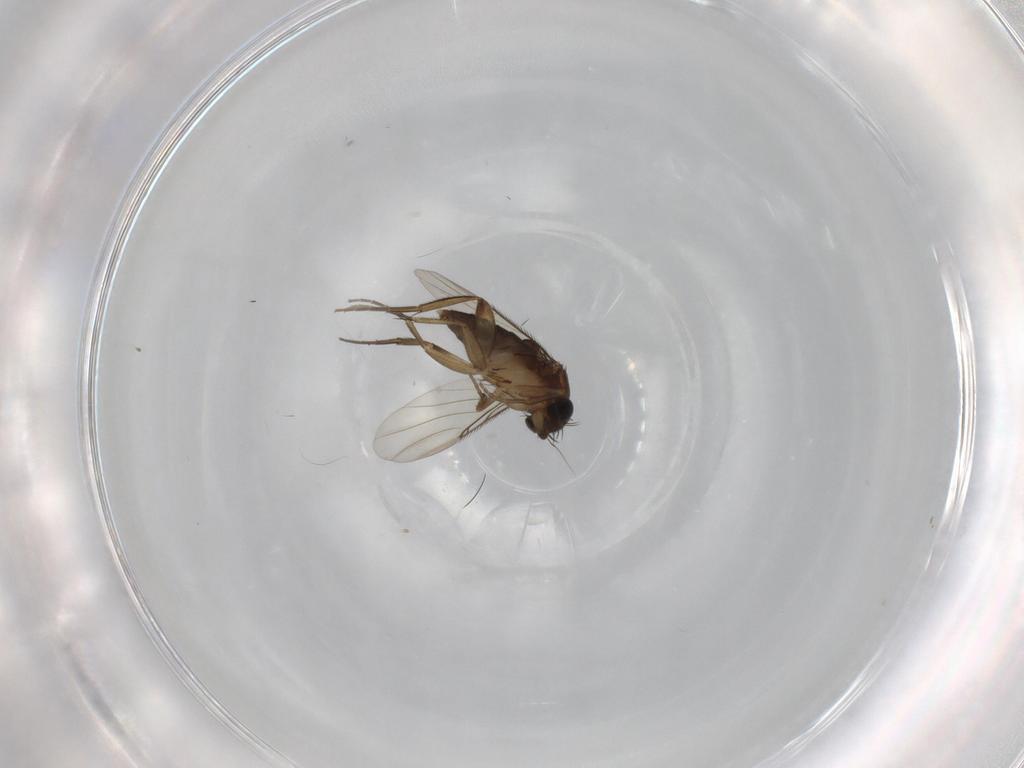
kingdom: Animalia
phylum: Arthropoda
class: Insecta
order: Diptera
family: Phoridae
